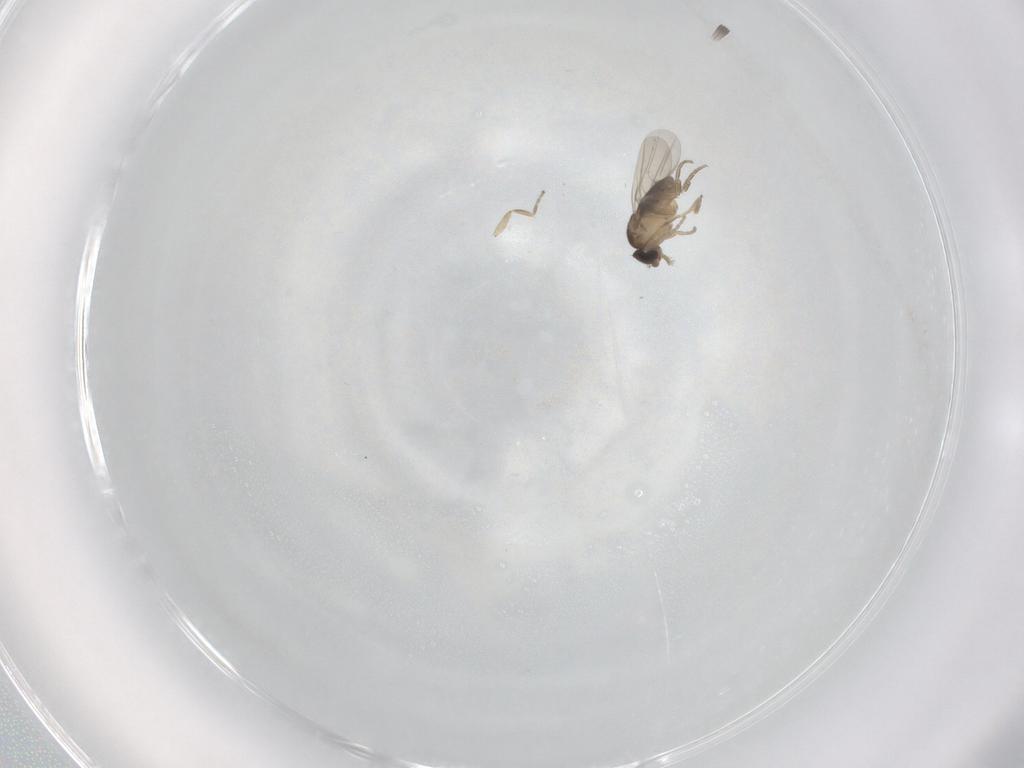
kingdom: Animalia
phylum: Arthropoda
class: Insecta
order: Diptera
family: Phoridae
